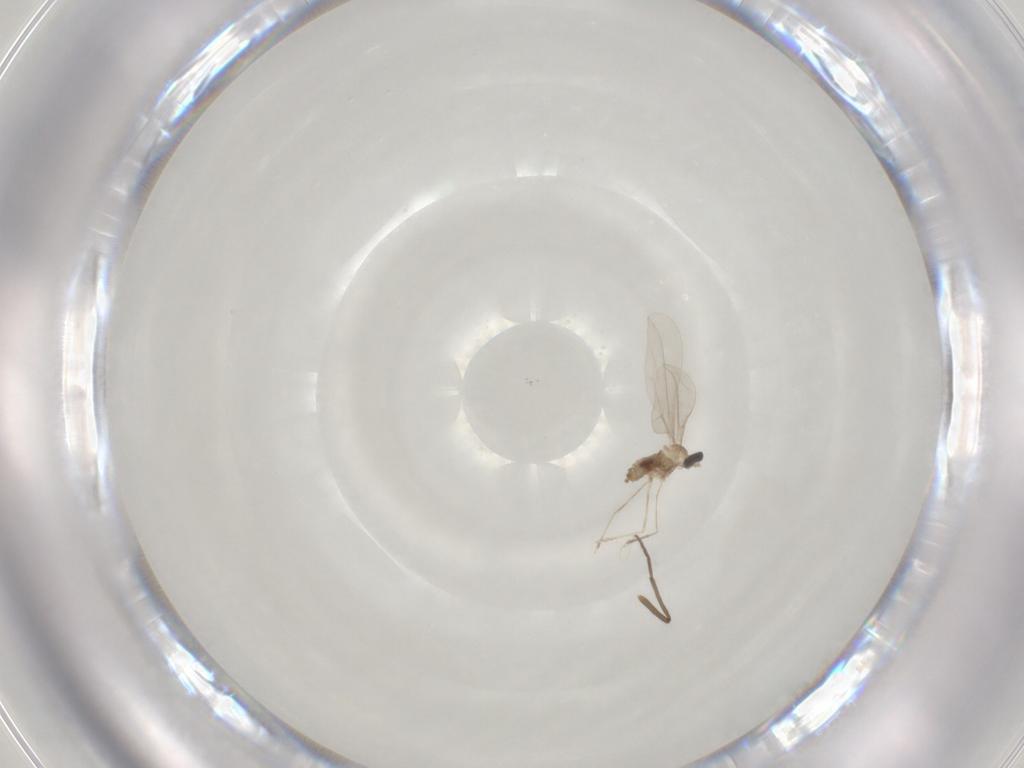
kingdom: Animalia
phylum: Arthropoda
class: Insecta
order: Diptera
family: Chironomidae
